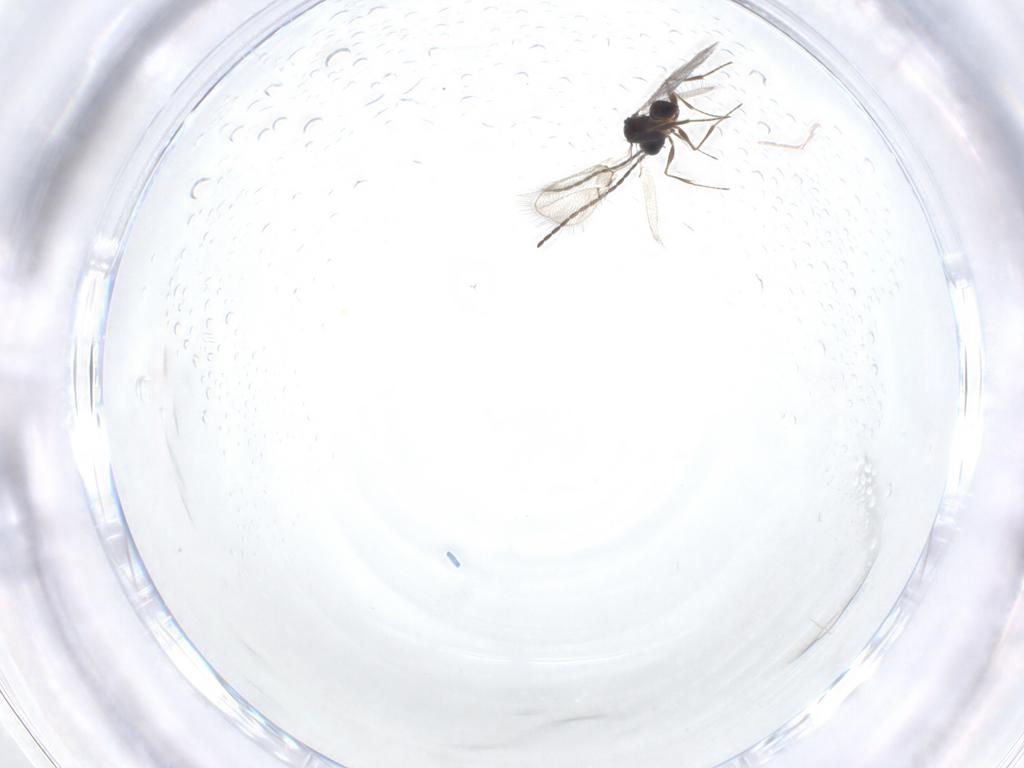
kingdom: Animalia
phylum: Arthropoda
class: Insecta
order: Hymenoptera
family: Diapriidae
